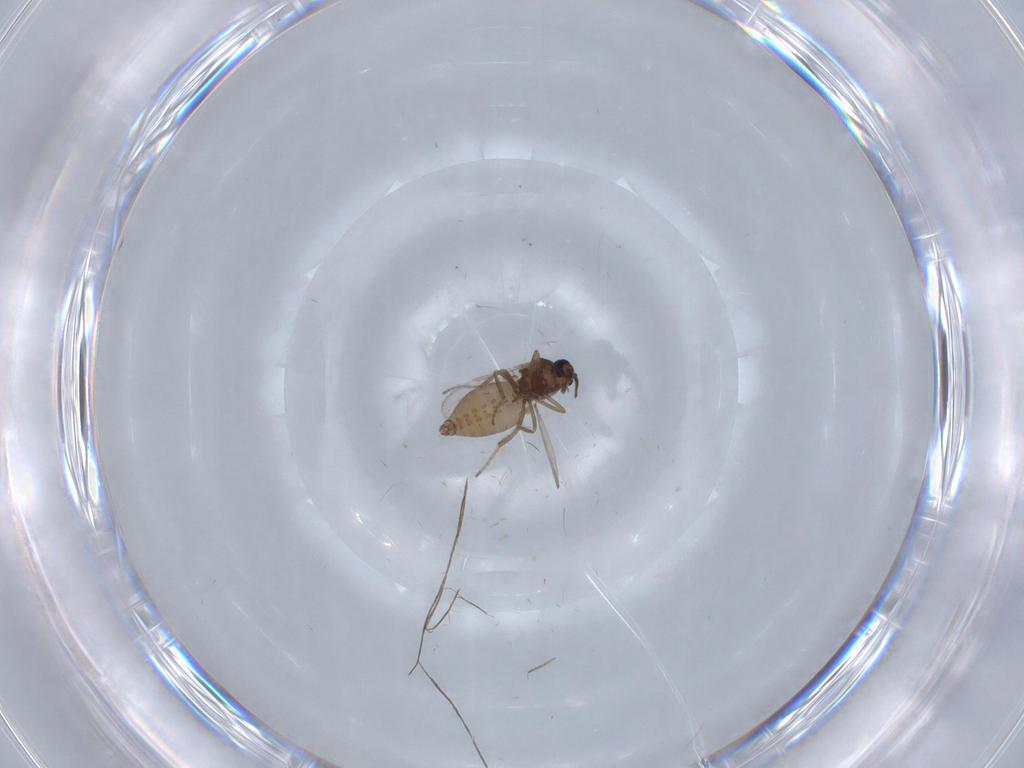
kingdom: Animalia
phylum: Arthropoda
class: Insecta
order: Diptera
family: Ceratopogonidae
